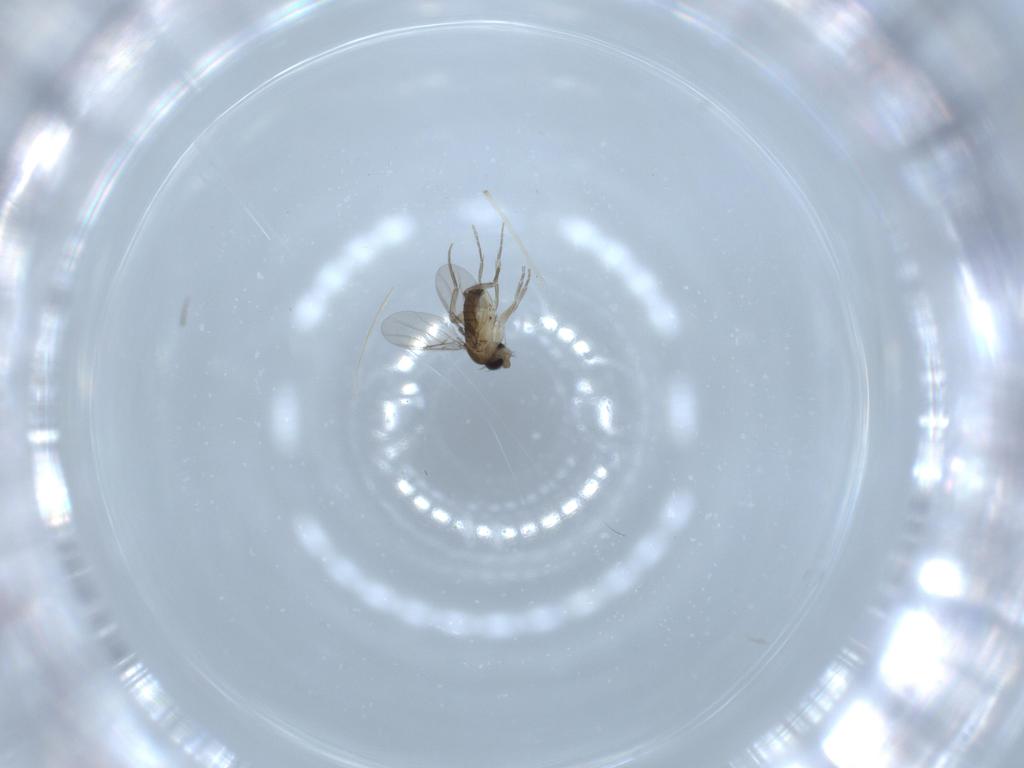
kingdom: Animalia
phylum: Arthropoda
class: Insecta
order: Diptera
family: Phoridae
